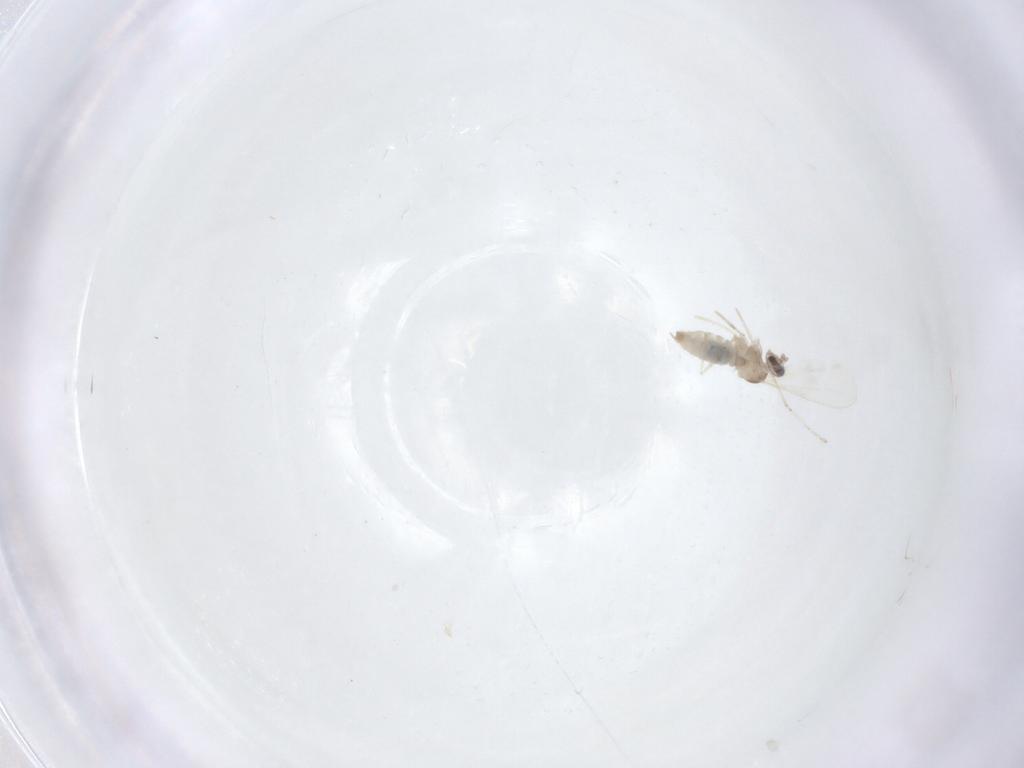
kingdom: Animalia
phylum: Arthropoda
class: Insecta
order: Diptera
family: Cecidomyiidae
